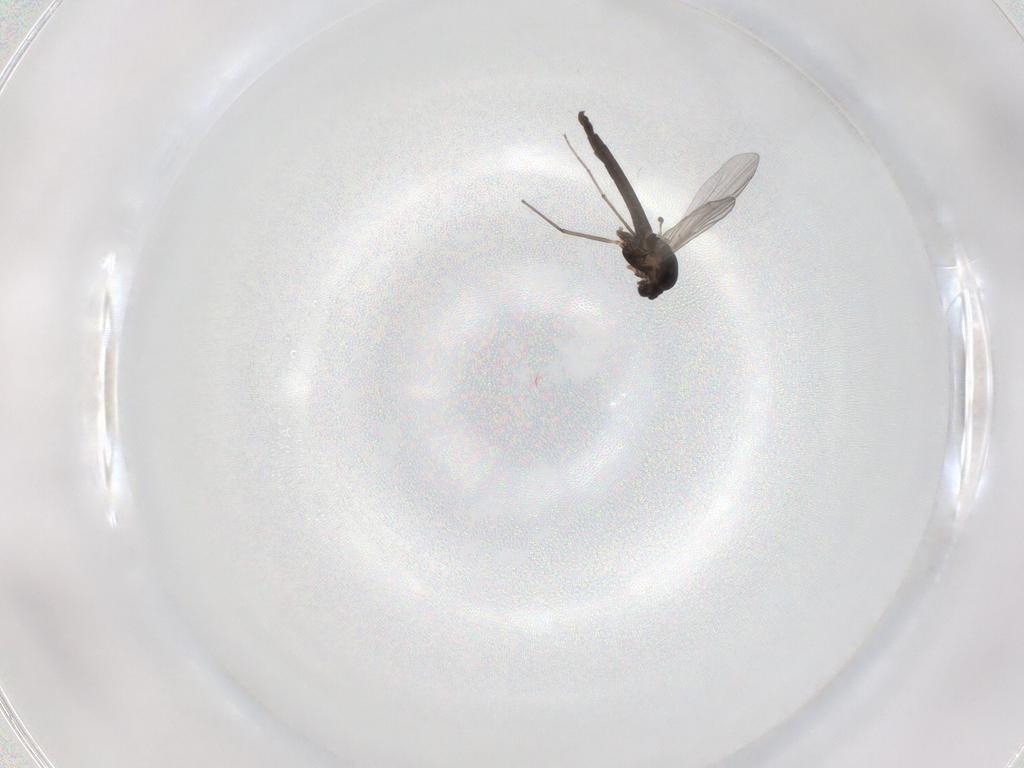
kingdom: Animalia
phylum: Arthropoda
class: Insecta
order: Diptera
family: Chironomidae
